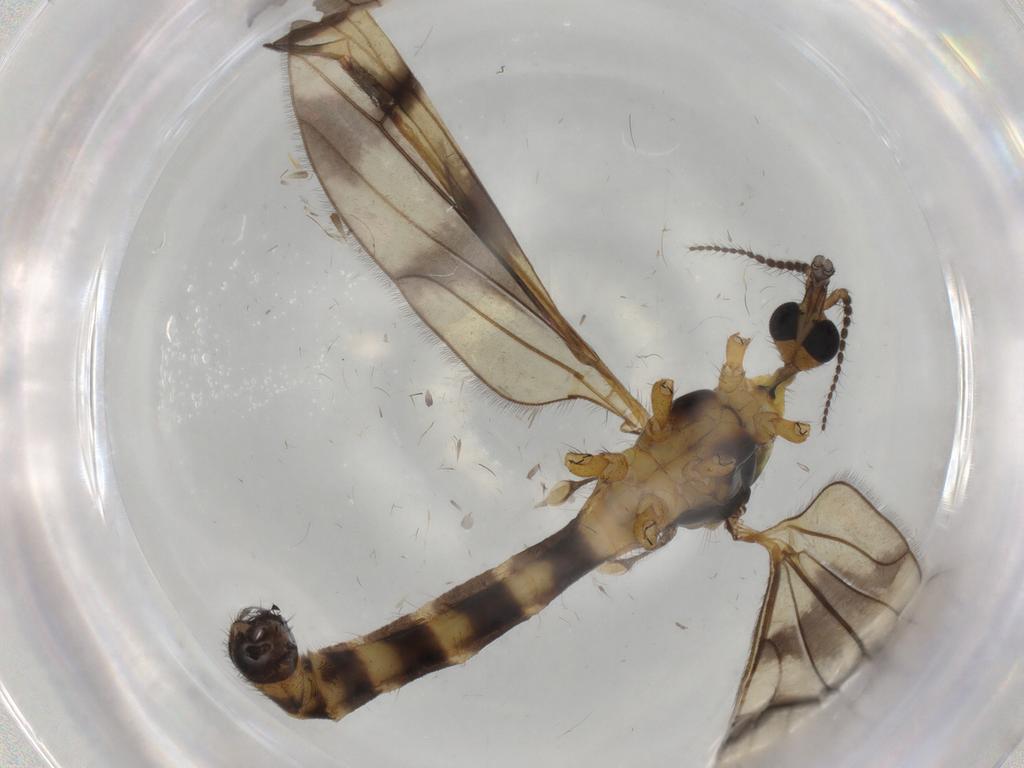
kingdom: Animalia
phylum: Arthropoda
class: Insecta
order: Diptera
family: Limoniidae
